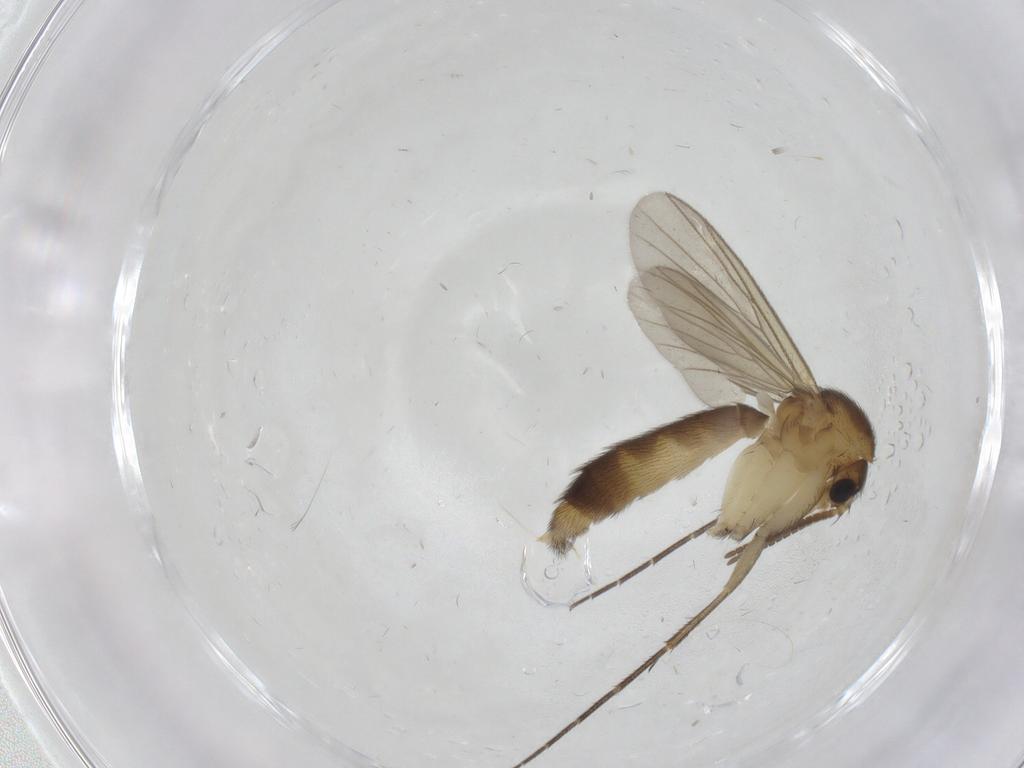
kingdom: Animalia
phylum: Arthropoda
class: Insecta
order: Diptera
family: Mycetophilidae
